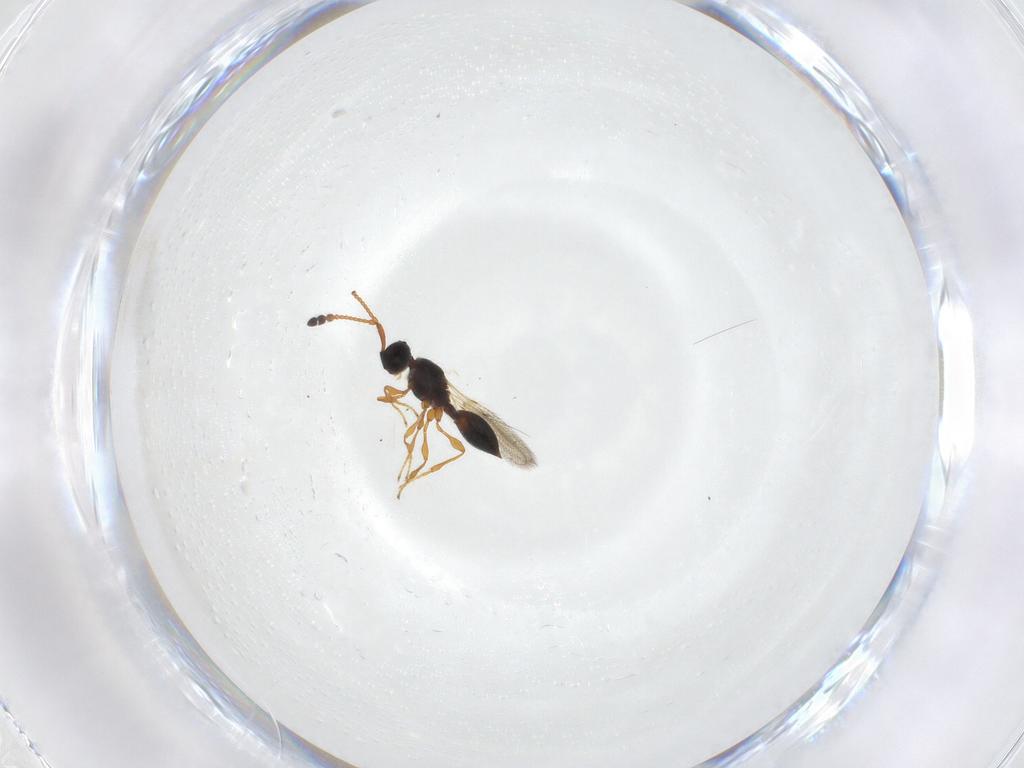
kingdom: Animalia
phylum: Arthropoda
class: Insecta
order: Hymenoptera
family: Diapriidae
